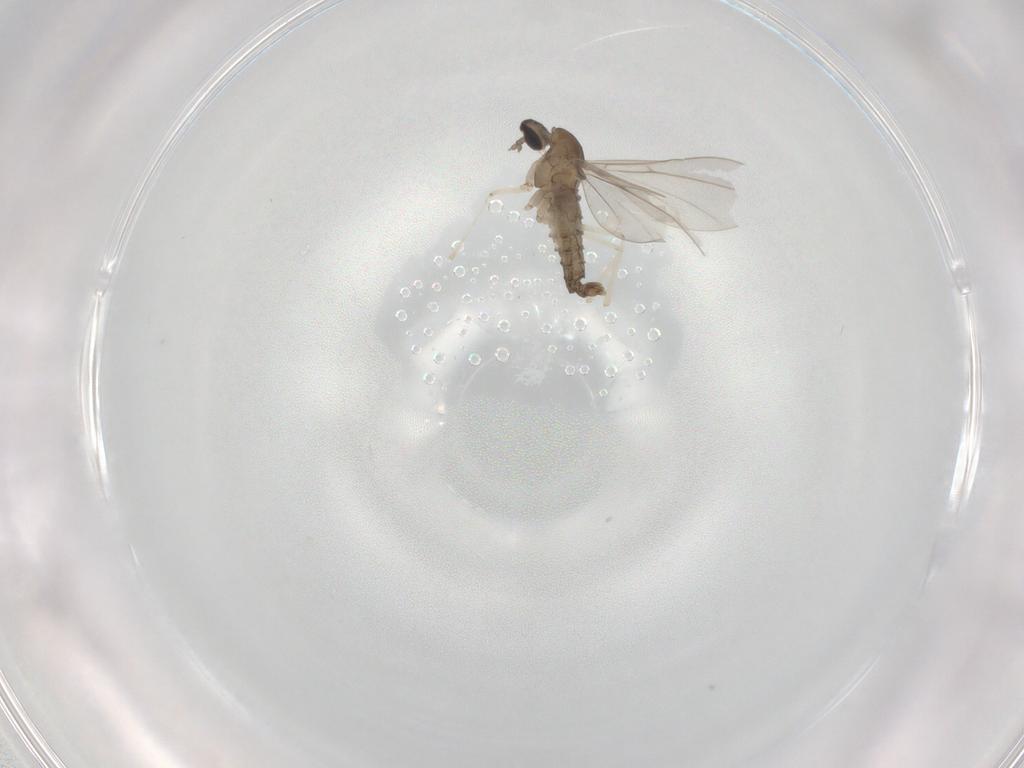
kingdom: Animalia
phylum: Arthropoda
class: Insecta
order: Diptera
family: Cecidomyiidae
